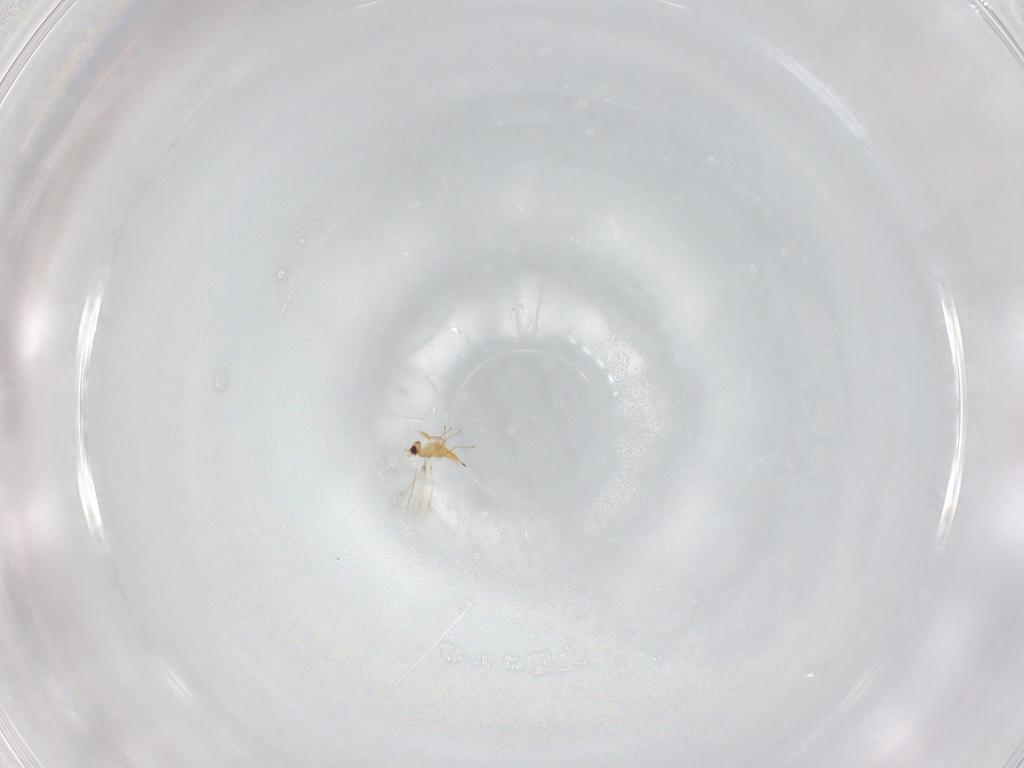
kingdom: Animalia
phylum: Arthropoda
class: Insecta
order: Hymenoptera
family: Mymaridae
